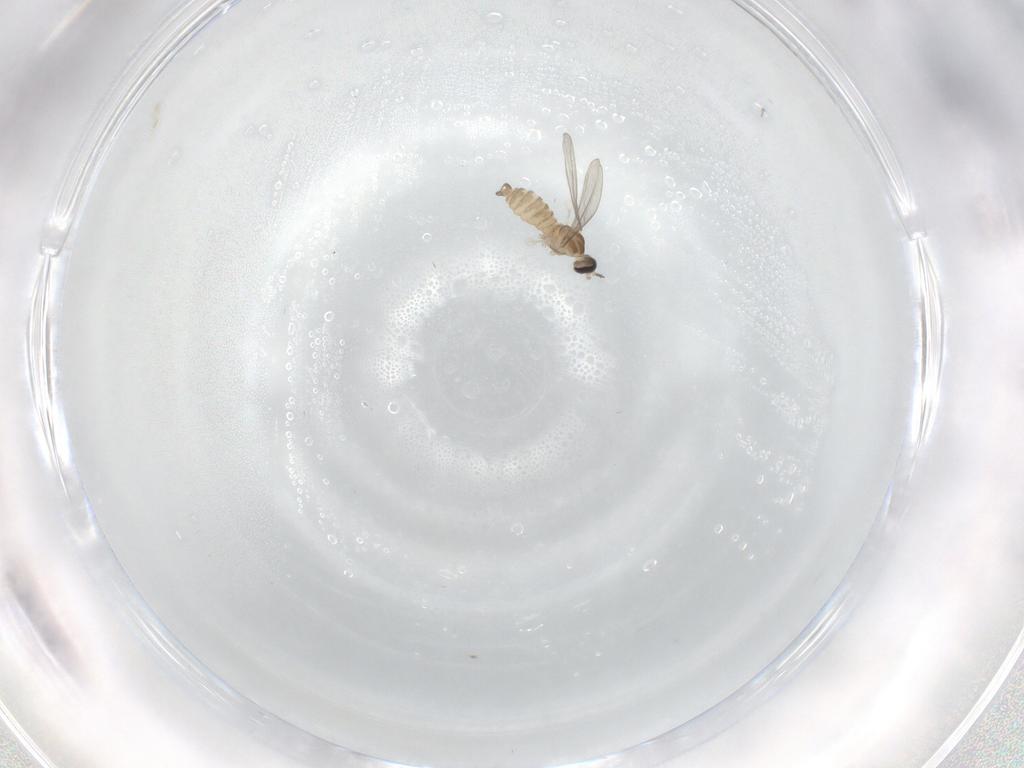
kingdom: Animalia
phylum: Arthropoda
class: Insecta
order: Diptera
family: Cecidomyiidae
